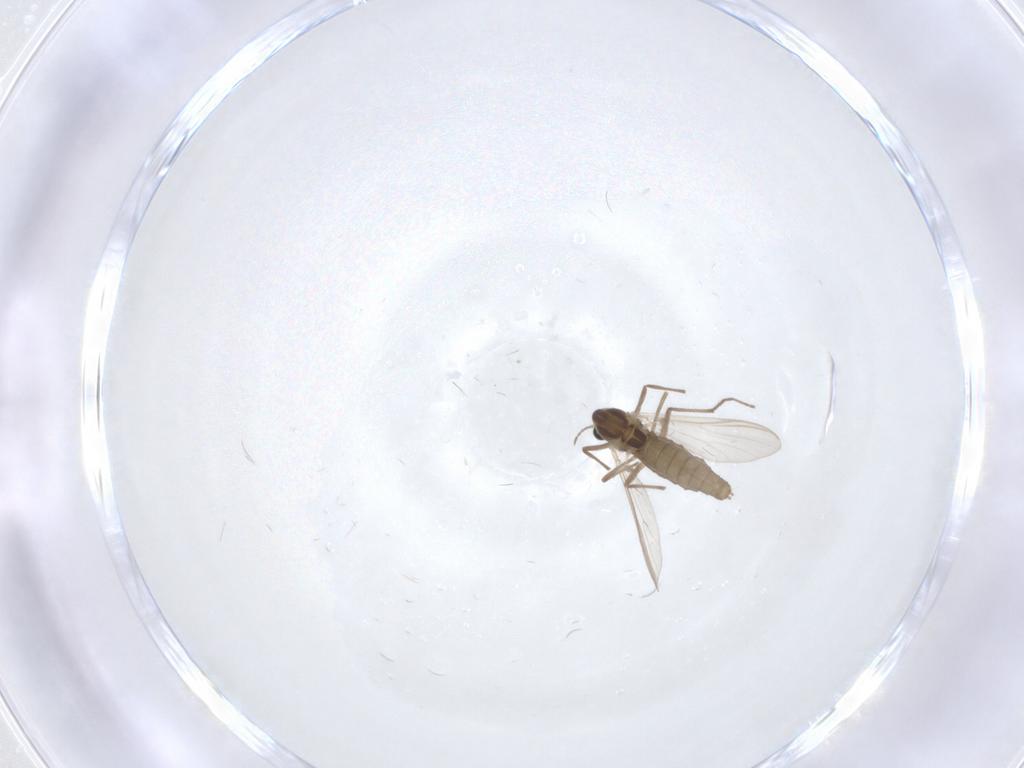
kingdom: Animalia
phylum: Arthropoda
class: Insecta
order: Diptera
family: Chironomidae
